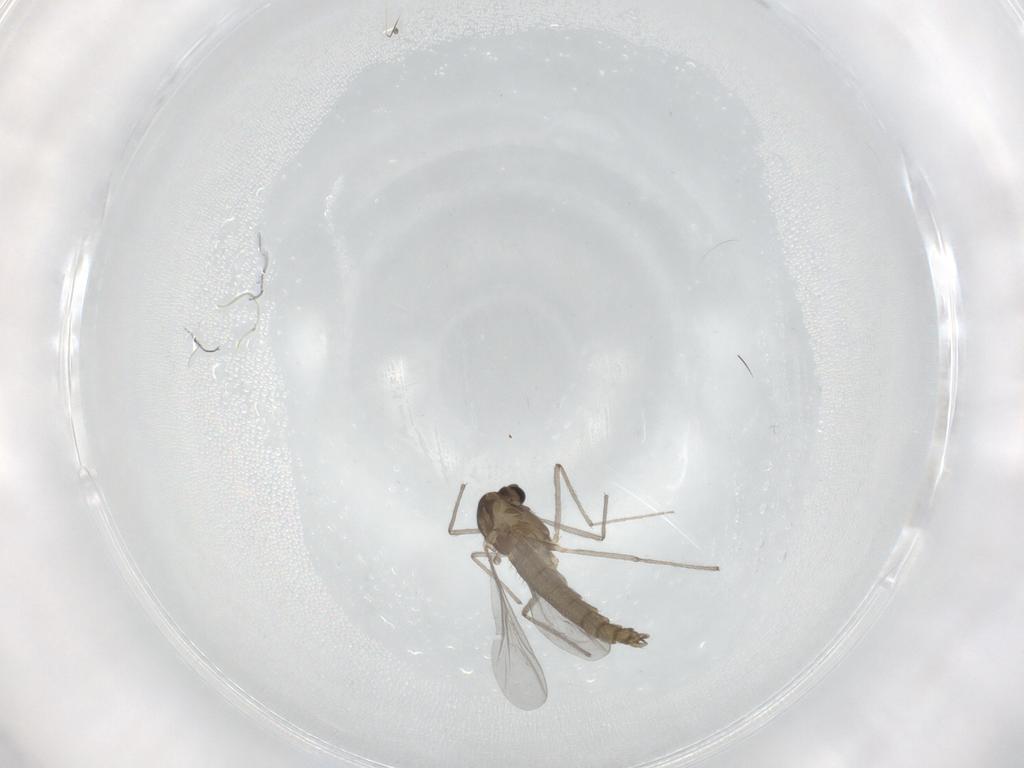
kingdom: Animalia
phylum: Arthropoda
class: Insecta
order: Diptera
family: Chironomidae
